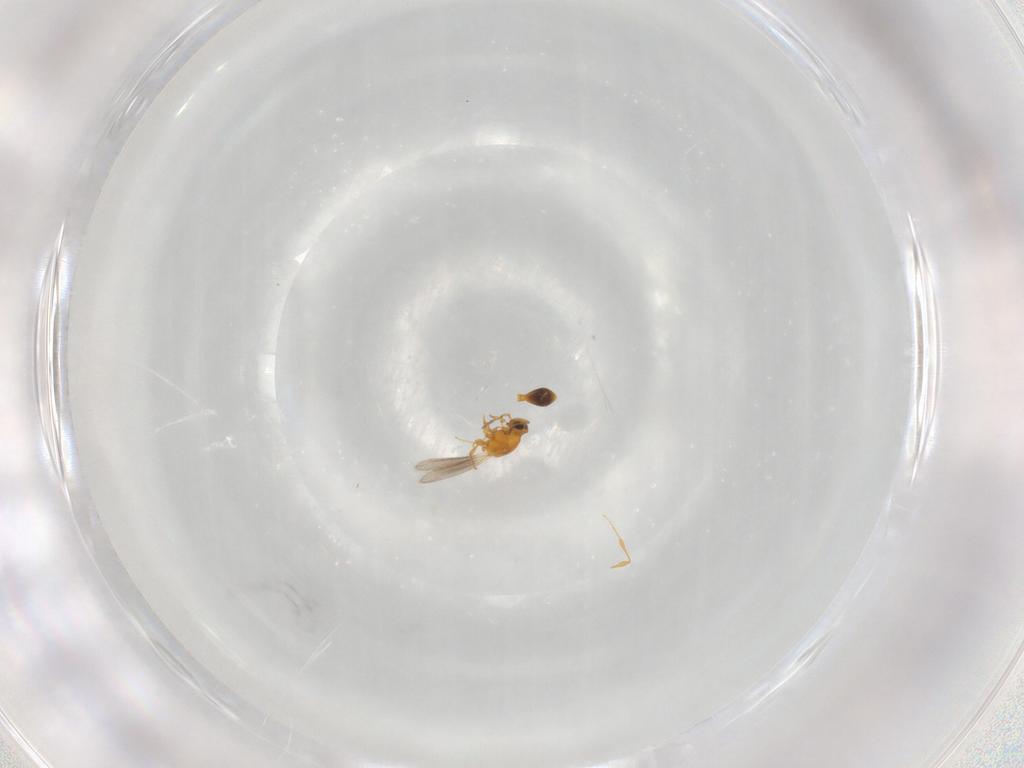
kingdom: Animalia
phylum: Arthropoda
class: Insecta
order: Hymenoptera
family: Platygastridae
